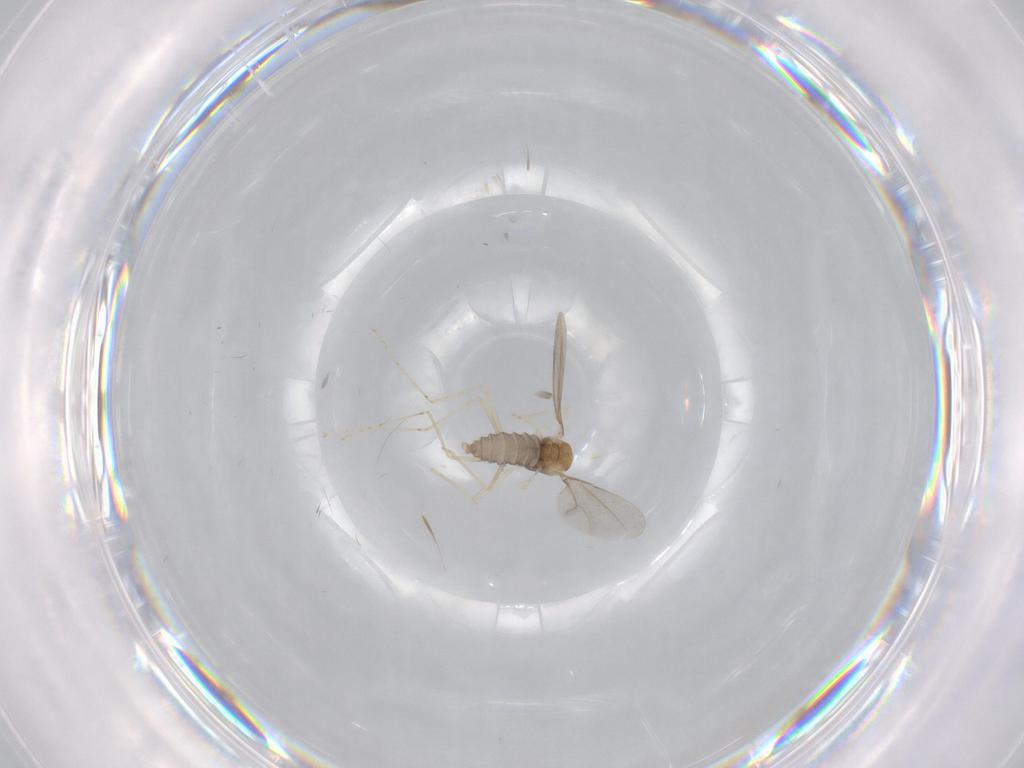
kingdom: Animalia
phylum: Arthropoda
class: Insecta
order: Diptera
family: Cecidomyiidae
